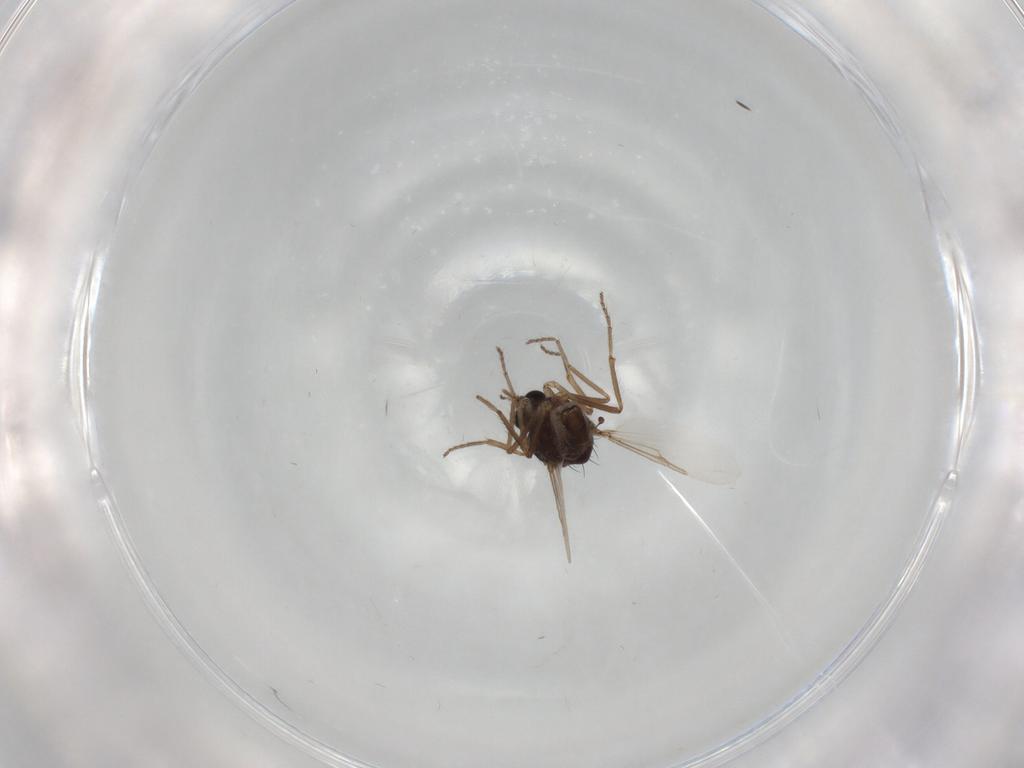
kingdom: Animalia
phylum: Arthropoda
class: Insecta
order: Diptera
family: Ceratopogonidae
